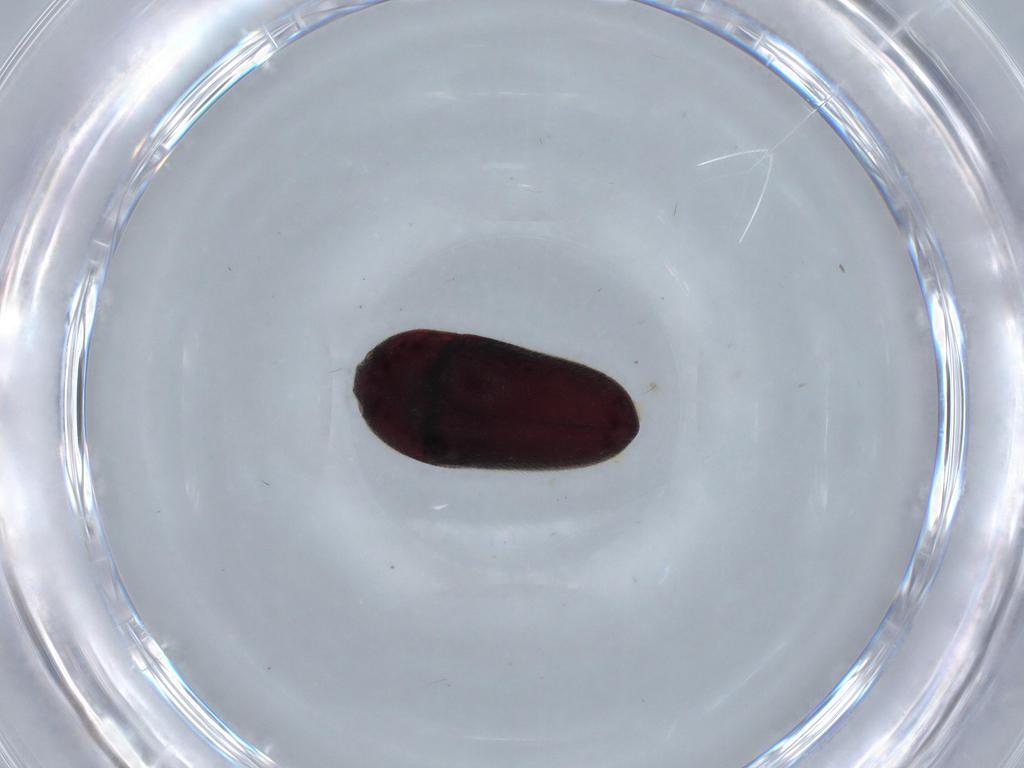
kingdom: Animalia
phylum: Arthropoda
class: Insecta
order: Coleoptera
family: Throscidae
